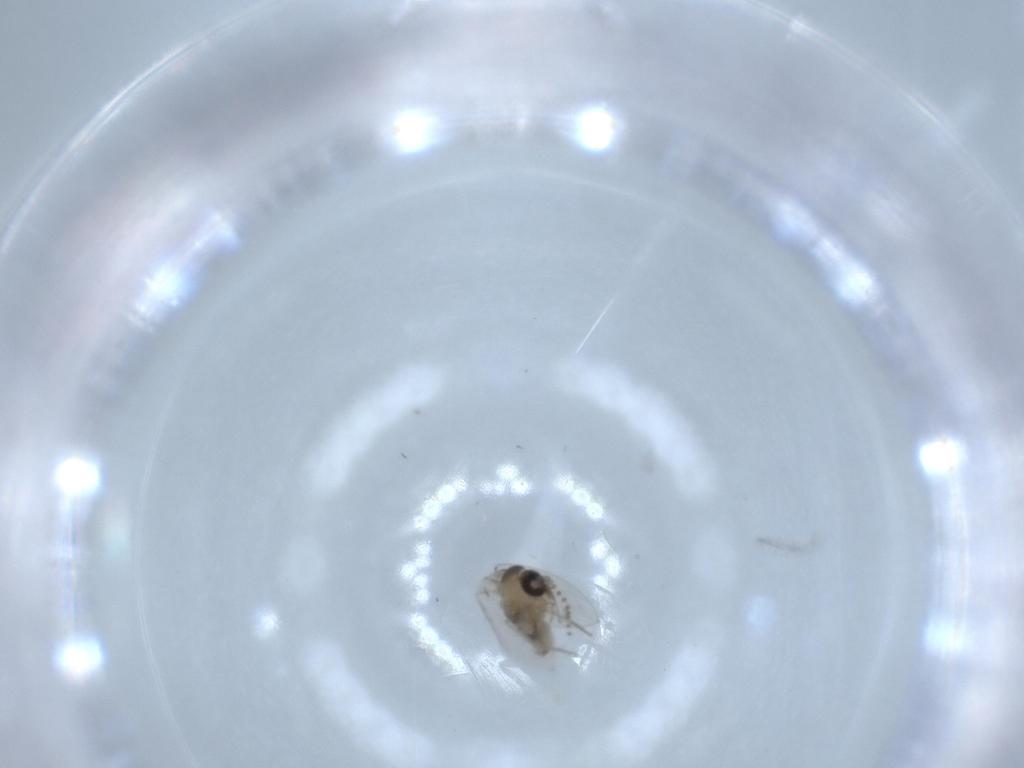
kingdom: Animalia
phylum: Arthropoda
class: Insecta
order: Diptera
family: Psychodidae
